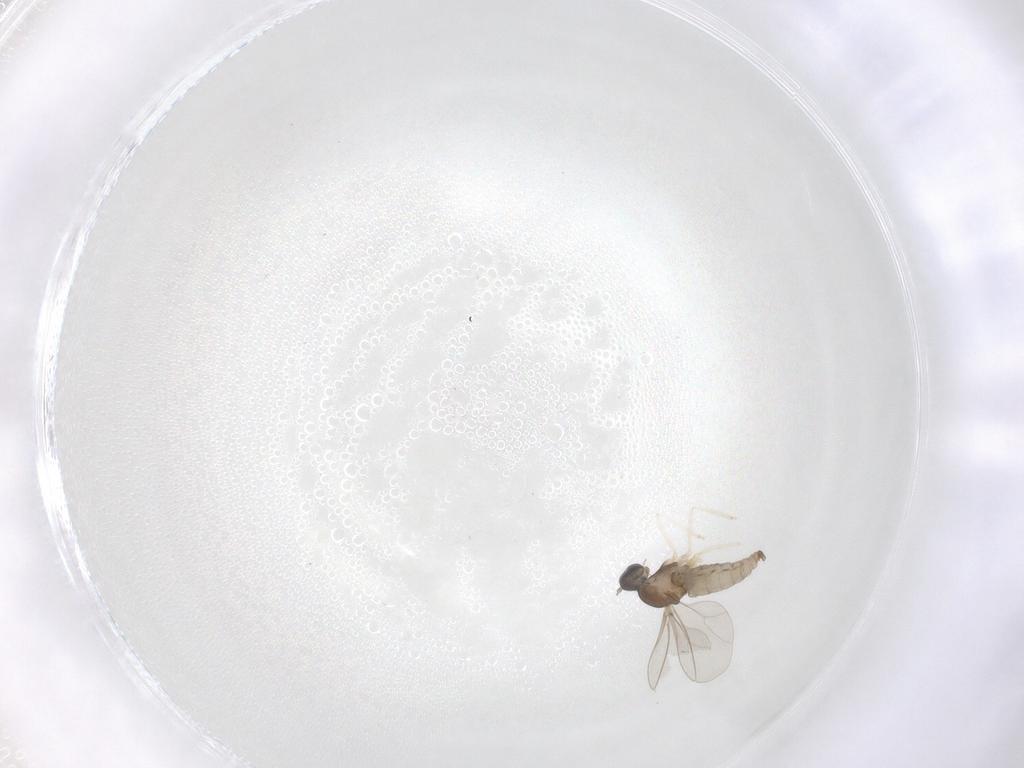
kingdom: Animalia
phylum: Arthropoda
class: Insecta
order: Diptera
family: Cecidomyiidae
